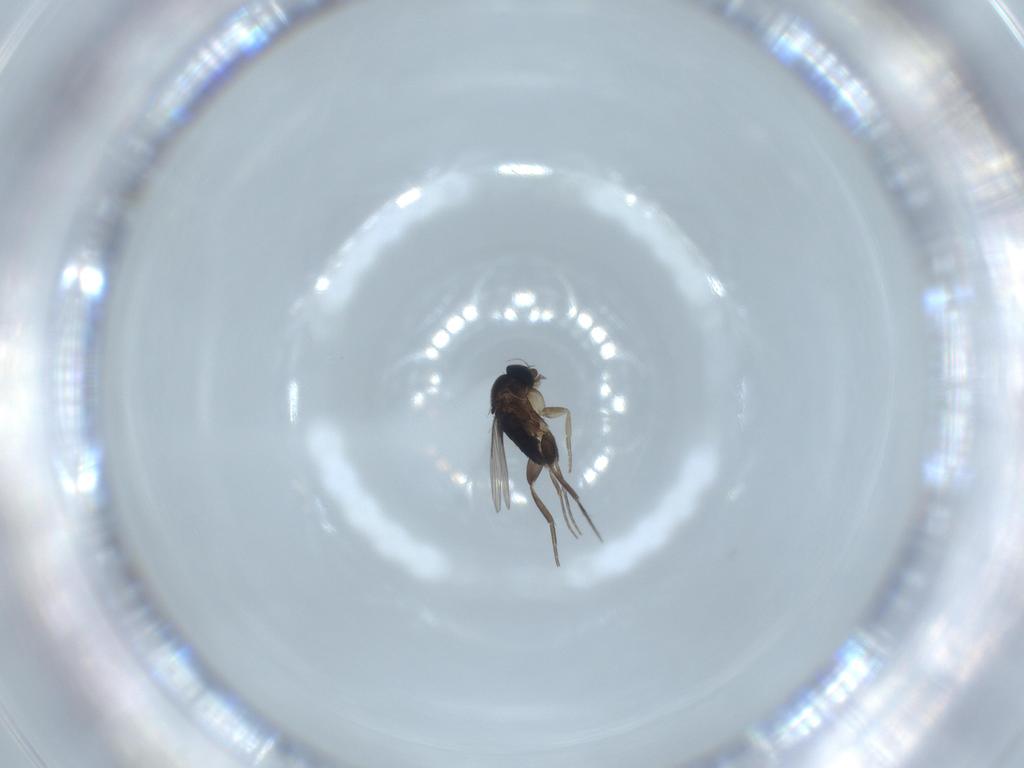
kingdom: Animalia
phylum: Arthropoda
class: Insecta
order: Diptera
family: Phoridae
